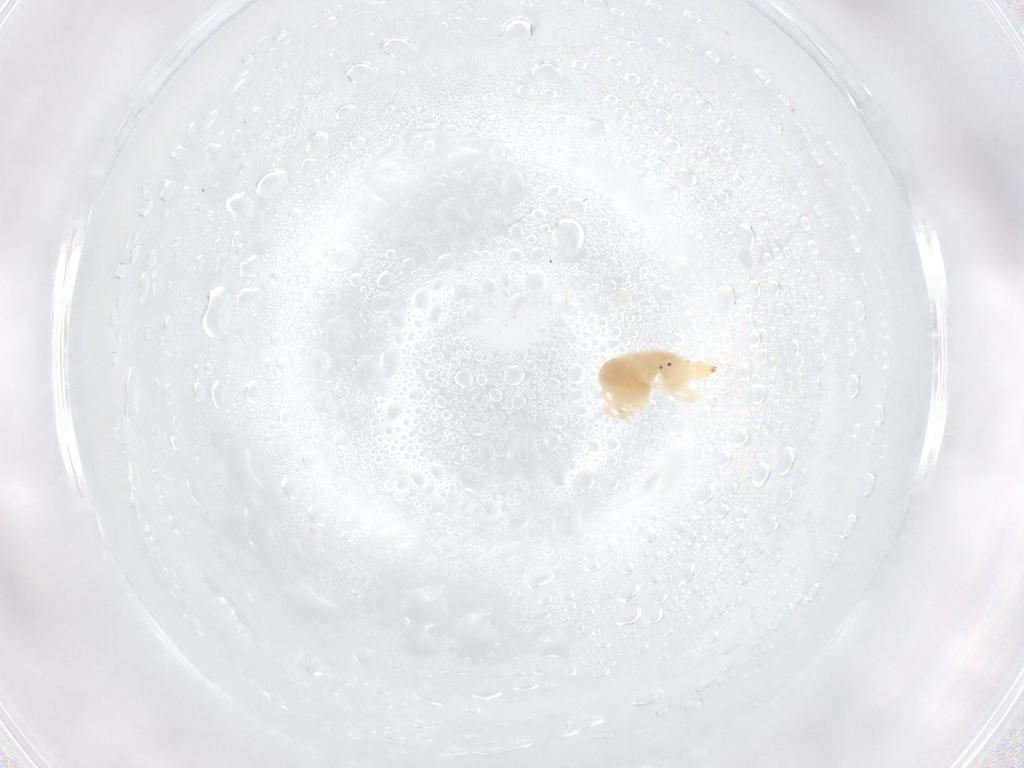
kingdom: Animalia
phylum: Arthropoda
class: Arachnida
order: Trombidiformes
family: Bdellidae
